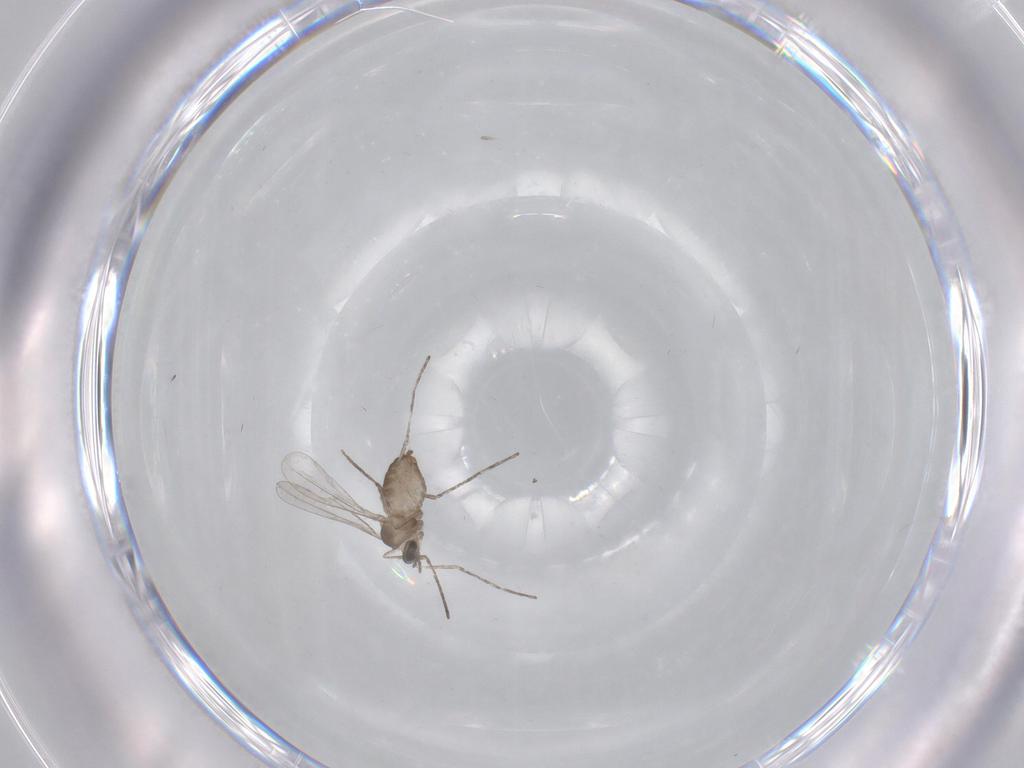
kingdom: Animalia
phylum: Arthropoda
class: Insecta
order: Diptera
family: Cecidomyiidae
